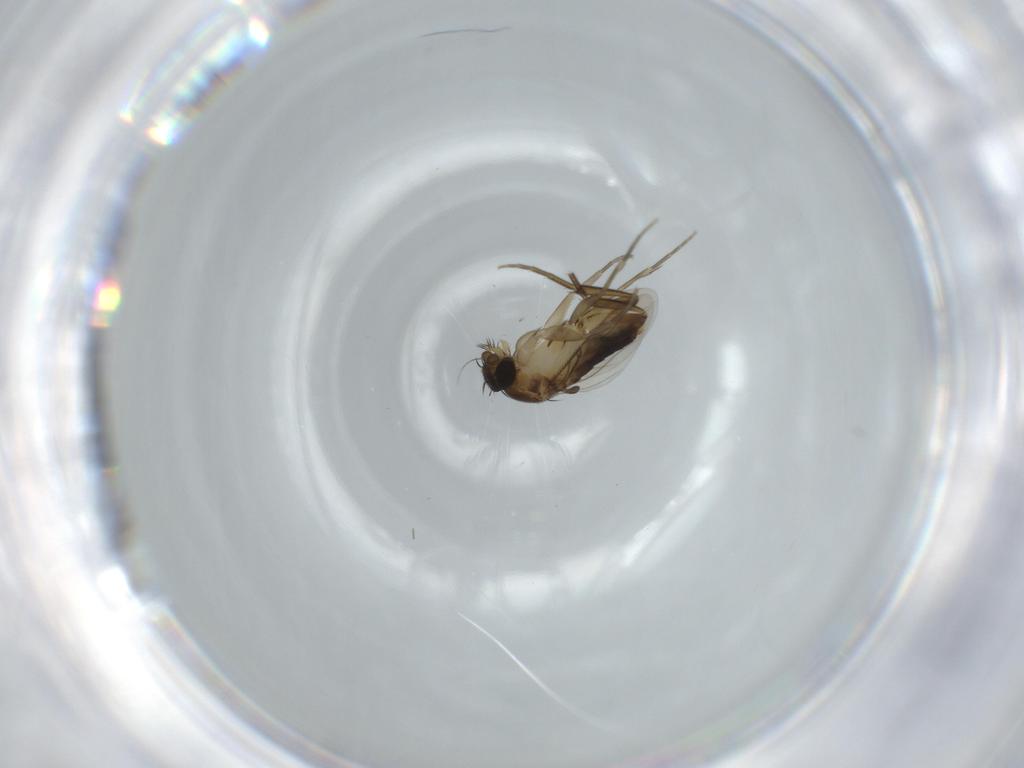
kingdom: Animalia
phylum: Arthropoda
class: Insecta
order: Diptera
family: Phoridae
